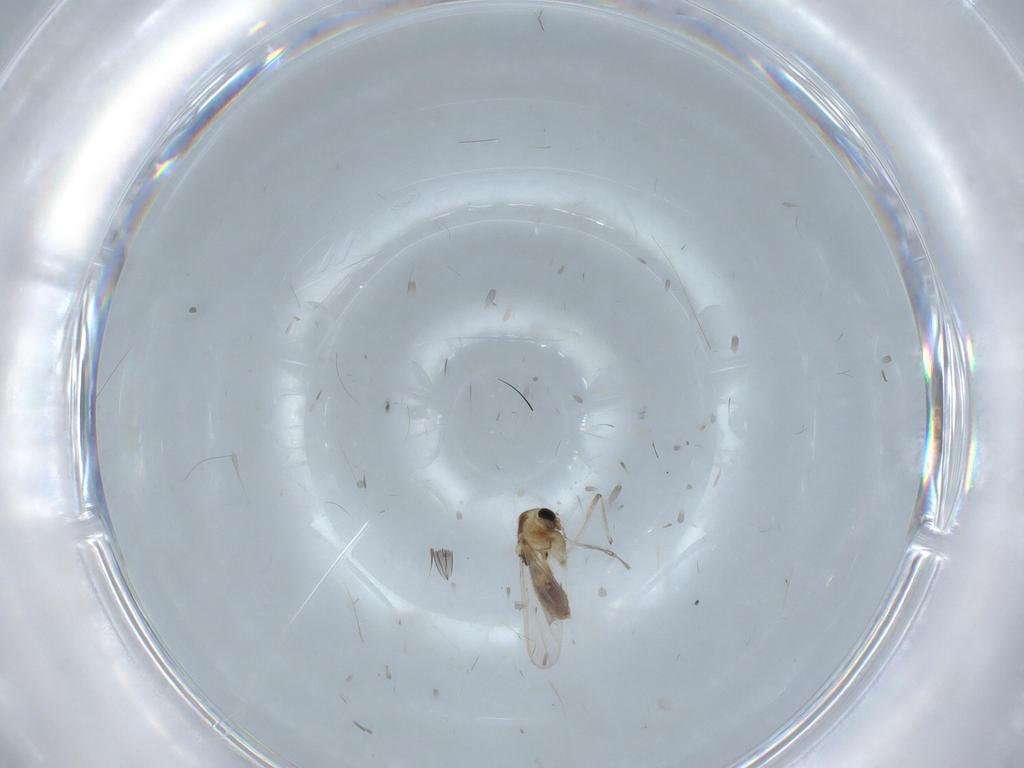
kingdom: Animalia
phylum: Arthropoda
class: Insecta
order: Diptera
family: Chironomidae
